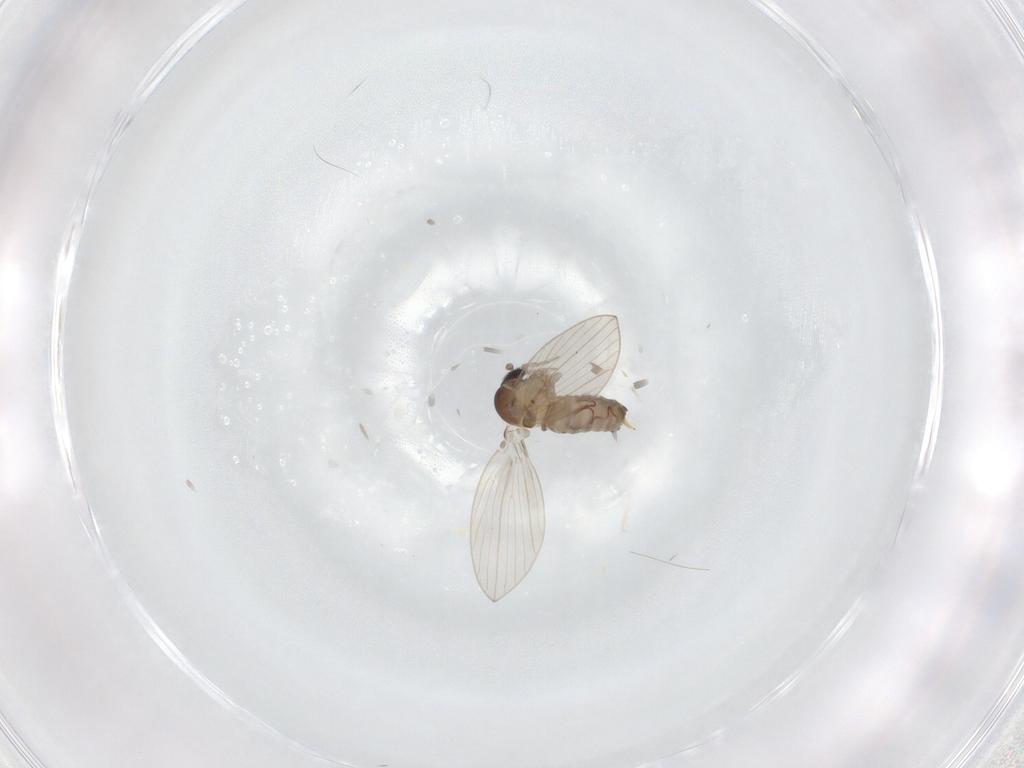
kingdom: Animalia
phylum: Arthropoda
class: Insecta
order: Diptera
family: Limoniidae
